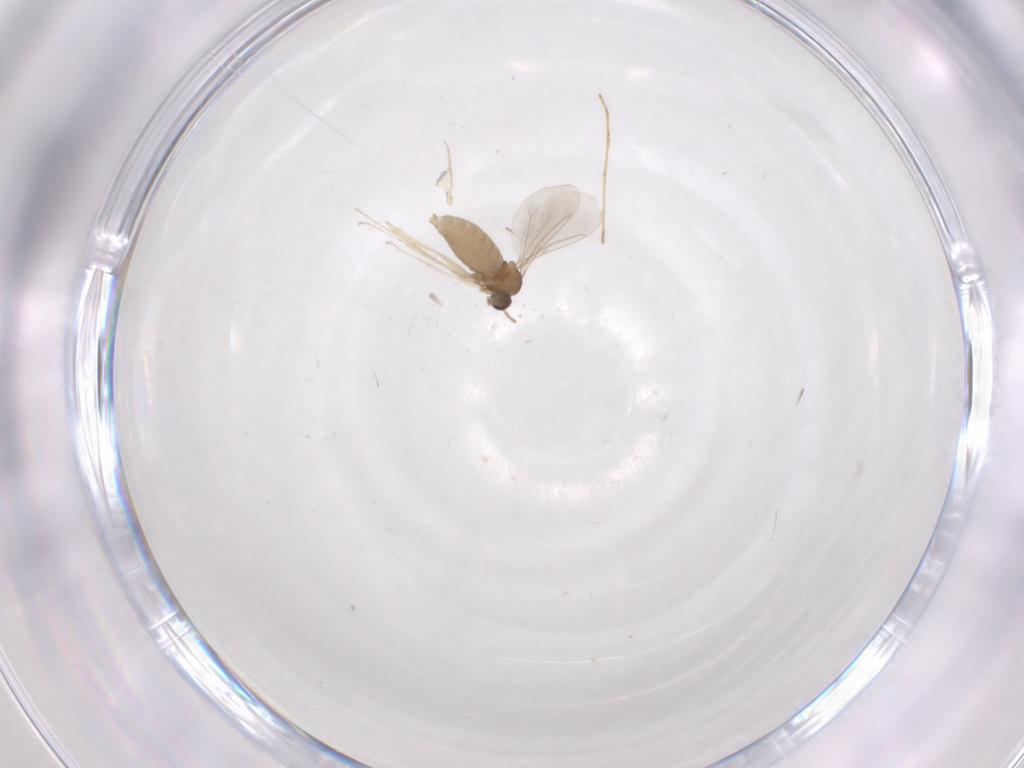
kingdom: Animalia
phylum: Arthropoda
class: Insecta
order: Diptera
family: Cecidomyiidae
